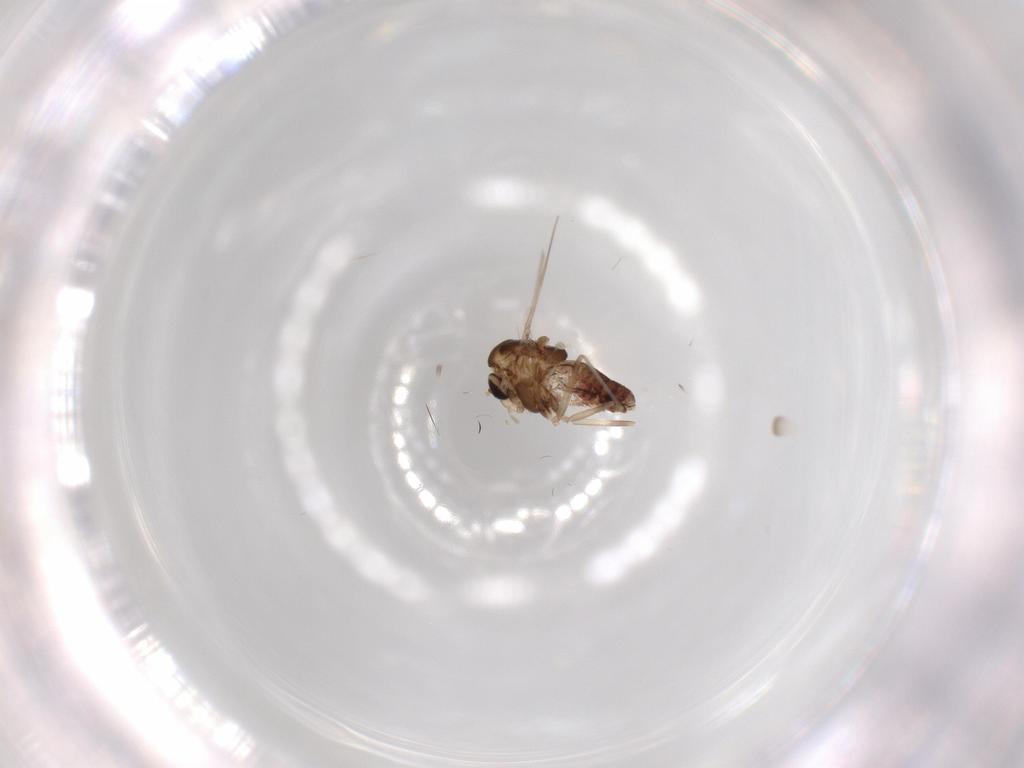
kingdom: Animalia
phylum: Arthropoda
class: Insecta
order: Diptera
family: Chironomidae
